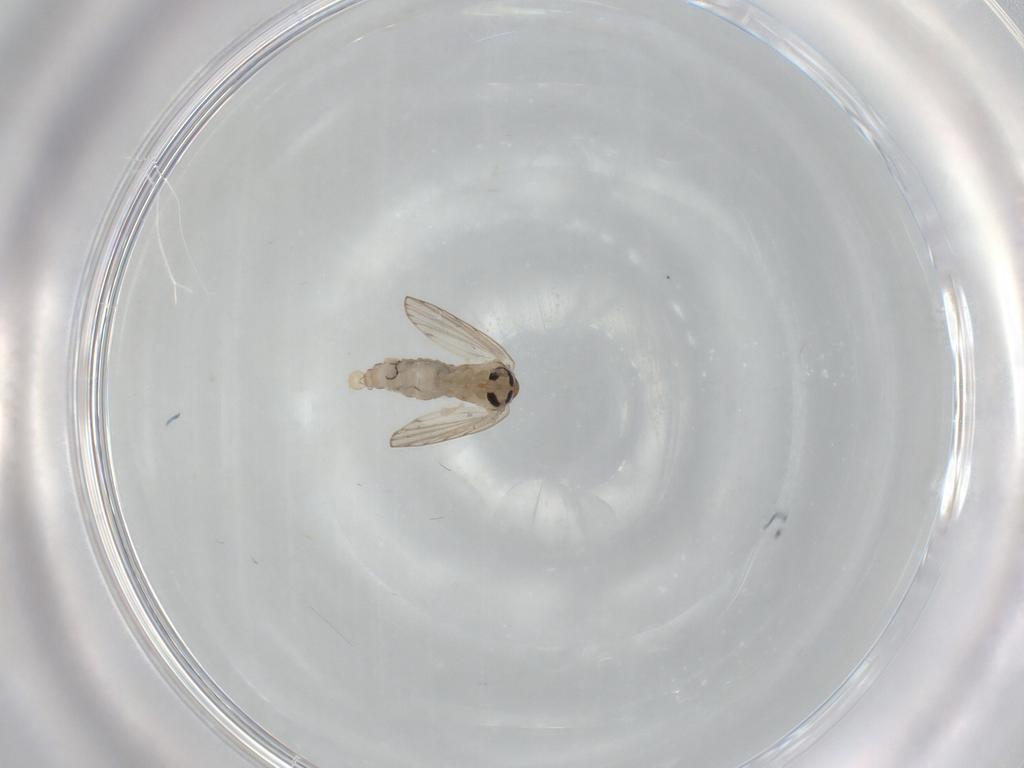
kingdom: Animalia
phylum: Arthropoda
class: Insecta
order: Diptera
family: Psychodidae
